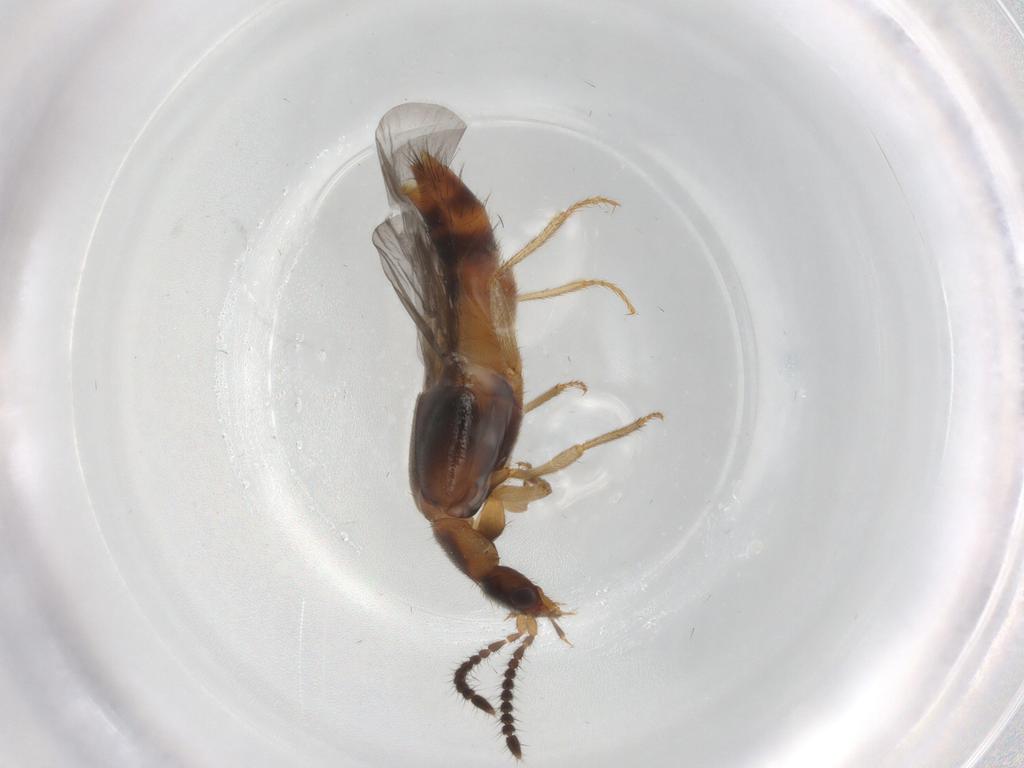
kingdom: Animalia
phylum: Arthropoda
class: Insecta
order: Coleoptera
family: Staphylinidae
